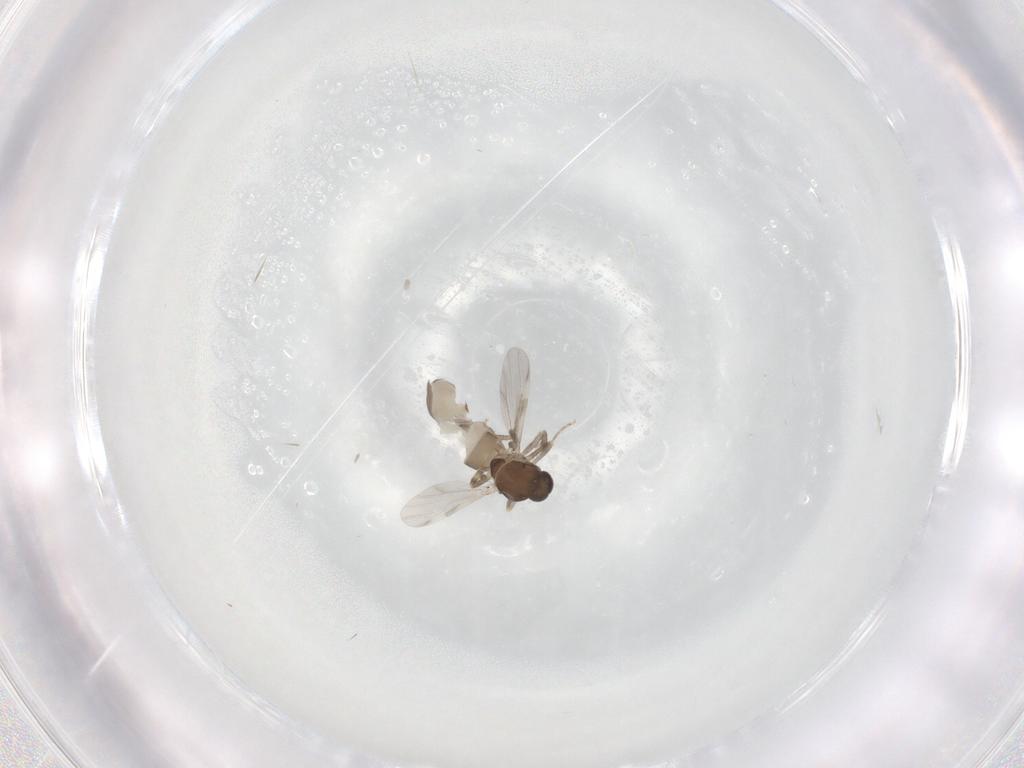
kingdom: Animalia
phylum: Arthropoda
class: Insecta
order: Diptera
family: Ceratopogonidae
